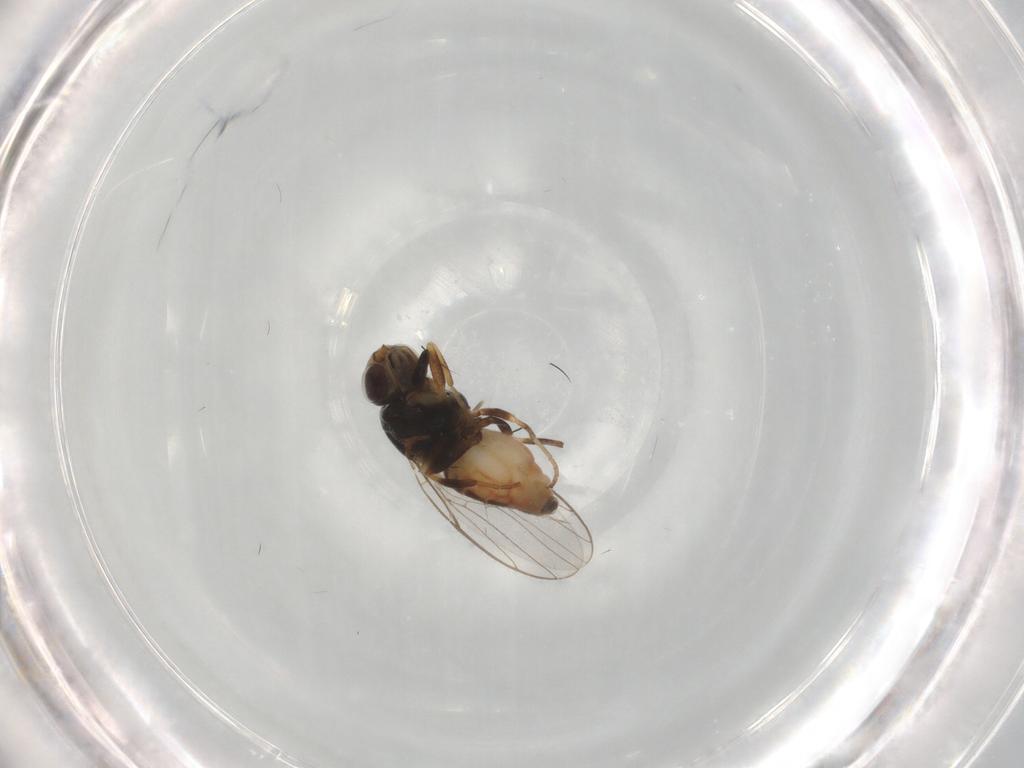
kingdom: Animalia
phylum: Arthropoda
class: Insecta
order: Diptera
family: Chloropidae
